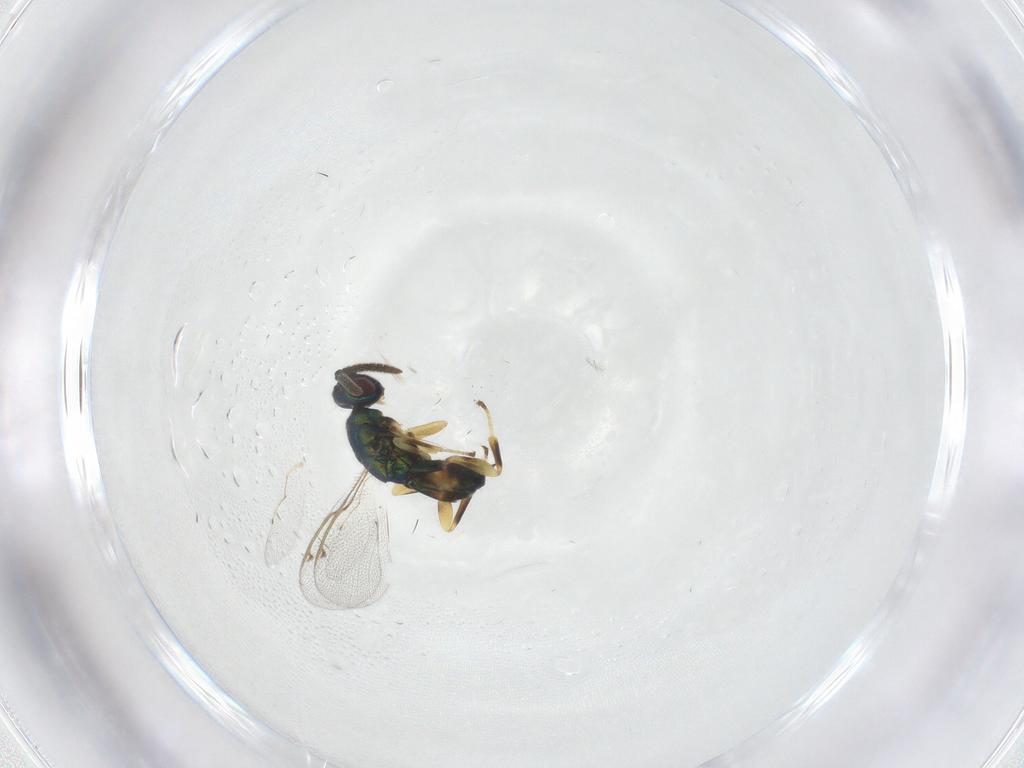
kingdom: Animalia
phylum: Arthropoda
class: Insecta
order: Hymenoptera
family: Torymidae
